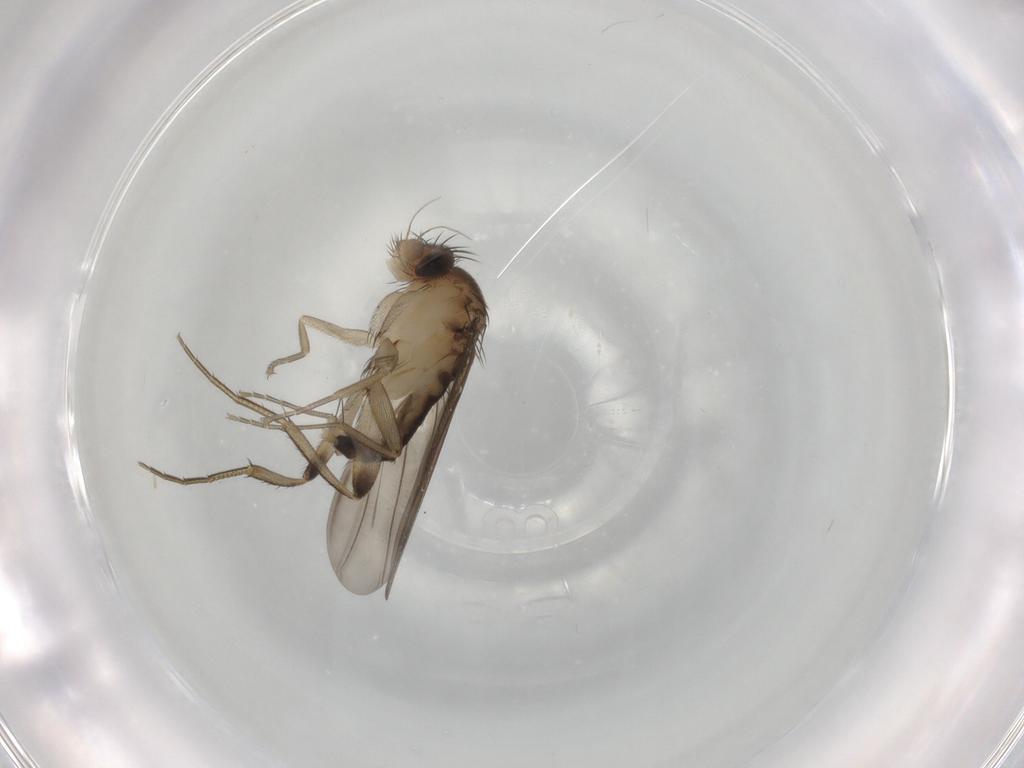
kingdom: Animalia
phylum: Arthropoda
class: Insecta
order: Diptera
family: Phoridae
